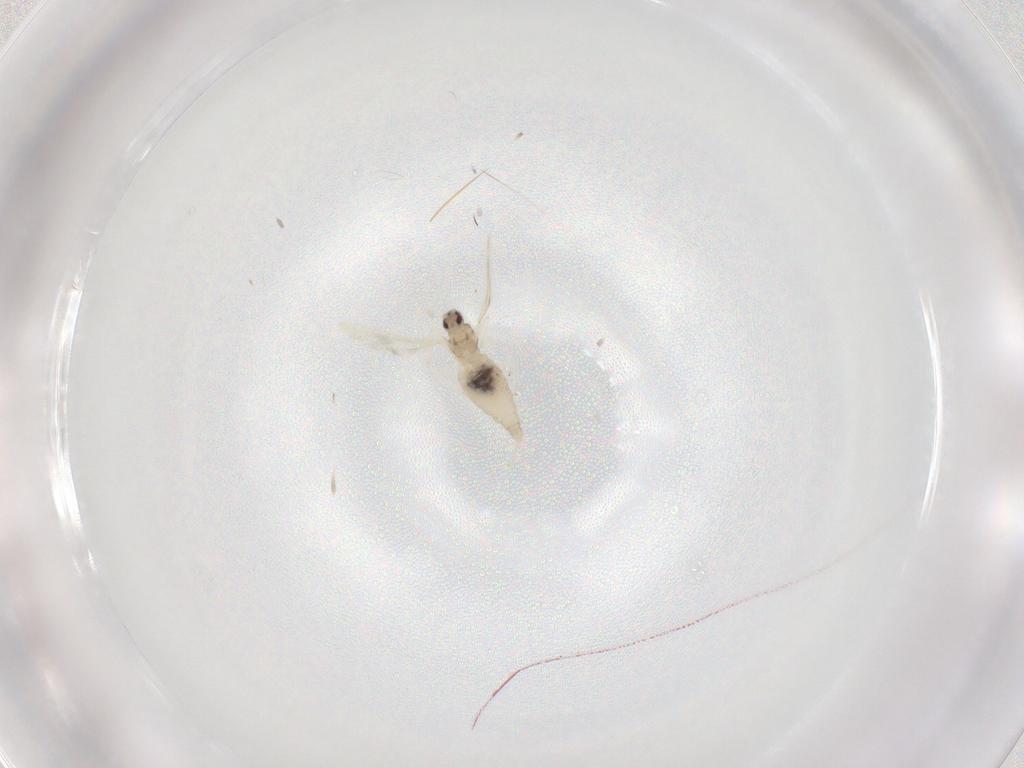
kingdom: Animalia
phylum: Arthropoda
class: Insecta
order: Diptera
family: Cecidomyiidae
